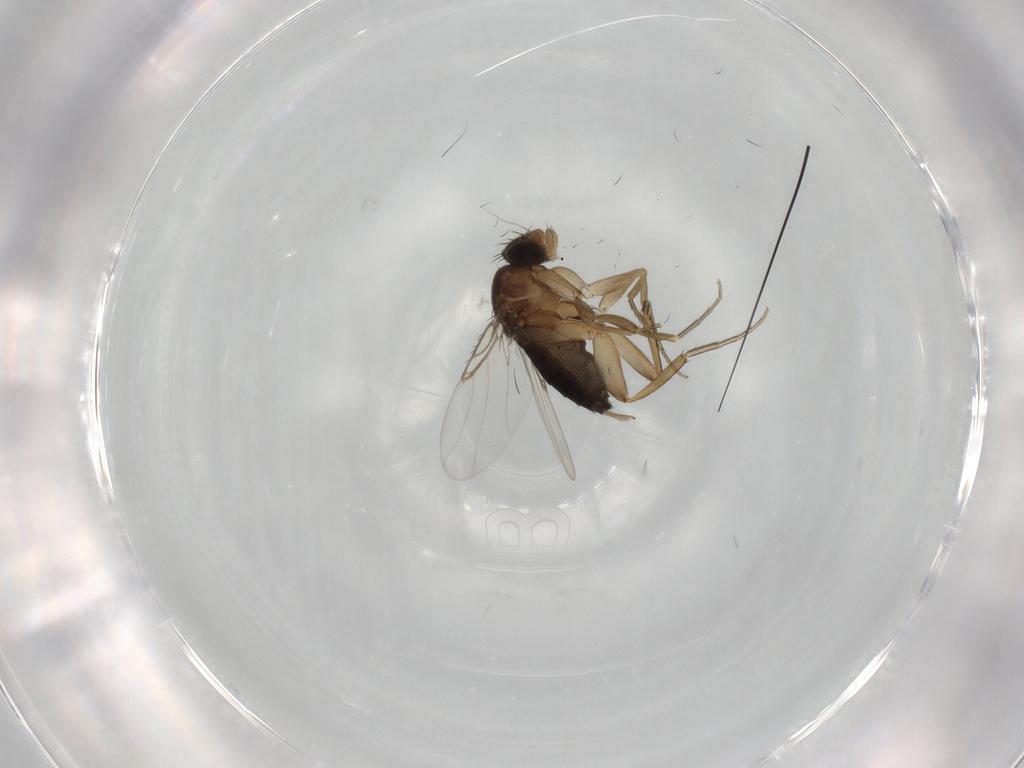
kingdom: Animalia
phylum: Arthropoda
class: Insecta
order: Diptera
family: Phoridae
